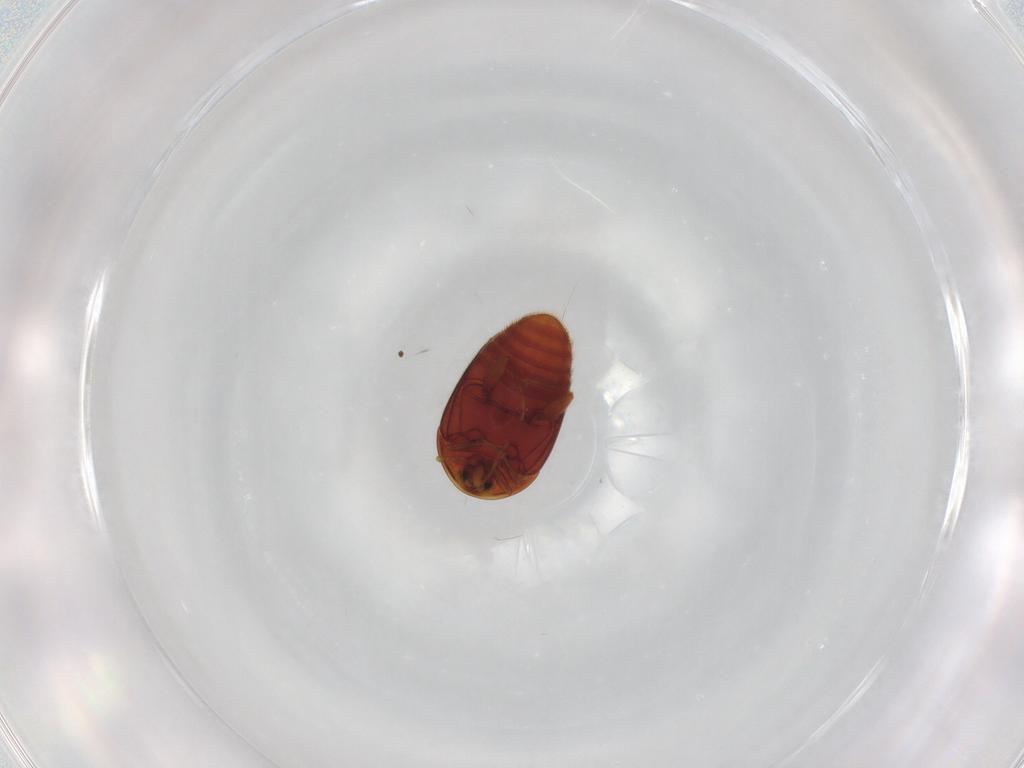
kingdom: Animalia
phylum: Arthropoda
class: Insecta
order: Coleoptera
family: Corylophidae
